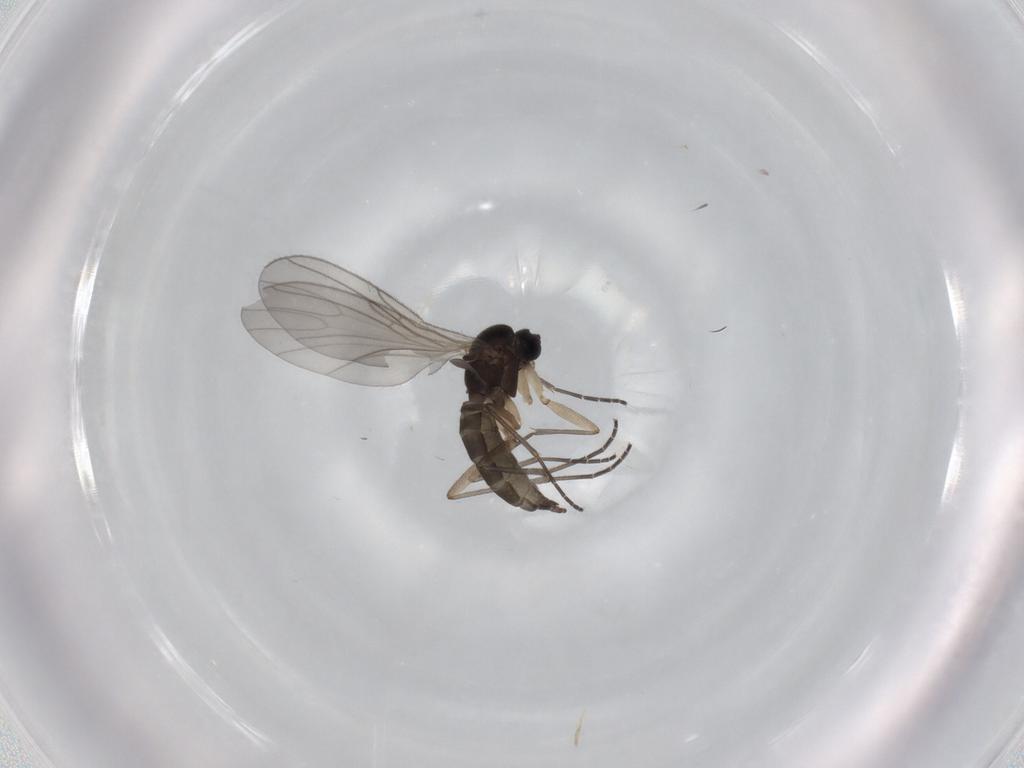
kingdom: Animalia
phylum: Arthropoda
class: Insecta
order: Diptera
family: Sciaridae
